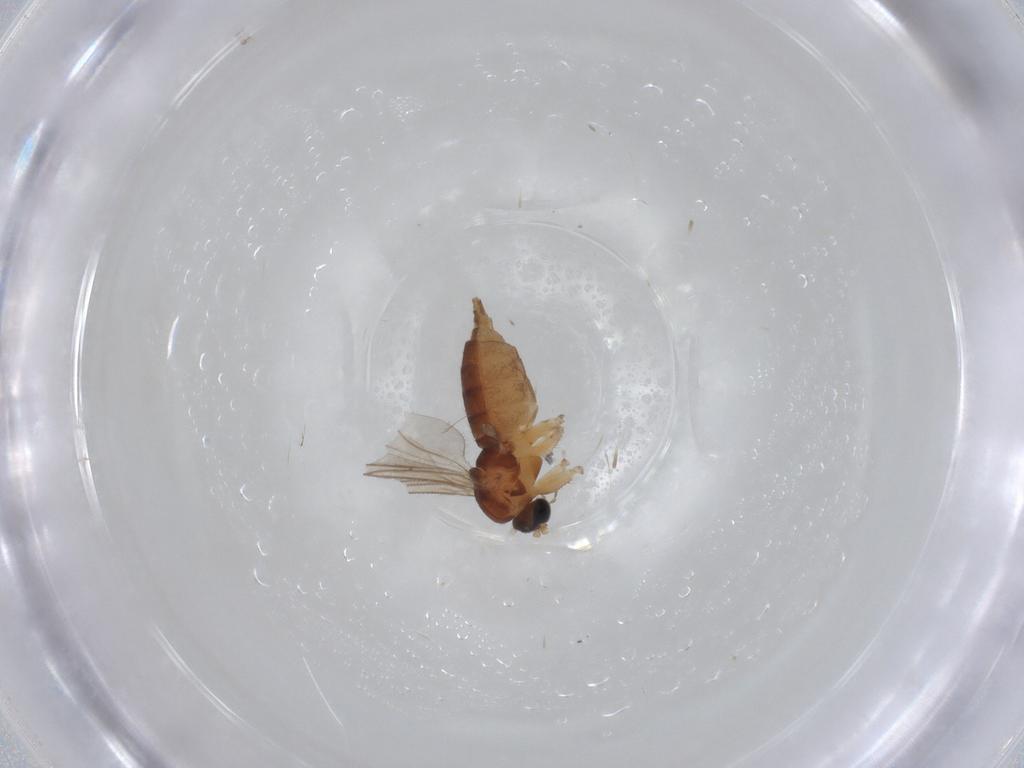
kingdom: Animalia
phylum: Arthropoda
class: Insecta
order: Diptera
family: Sciaridae
